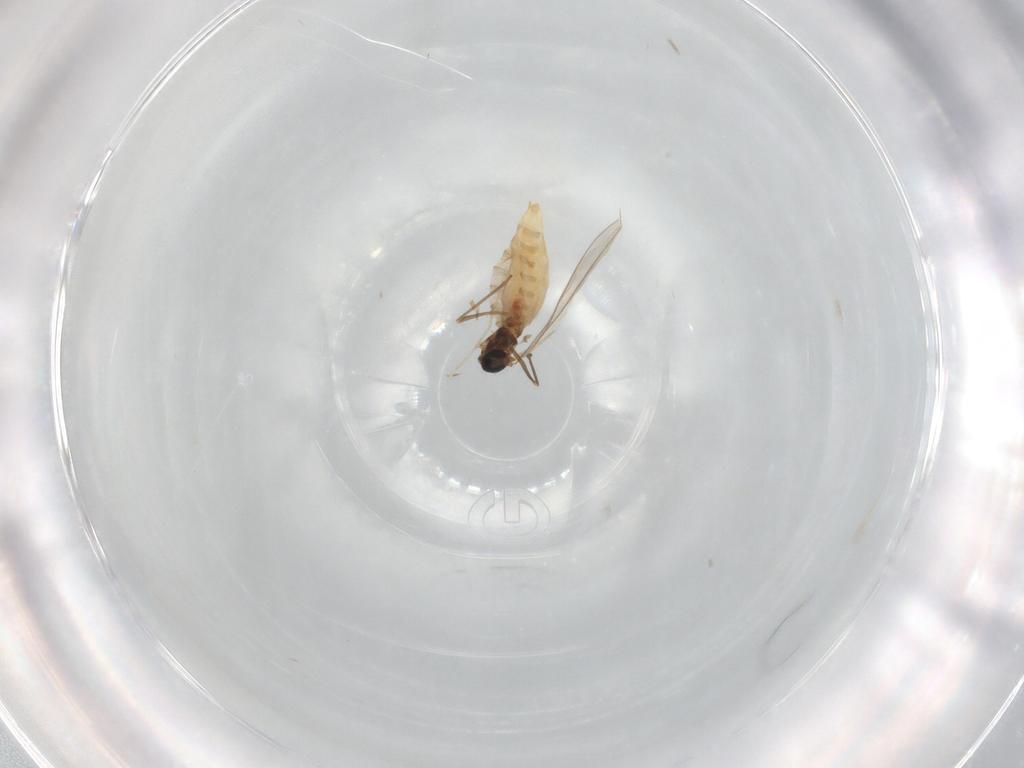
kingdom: Animalia
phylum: Arthropoda
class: Insecta
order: Diptera
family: Cecidomyiidae
